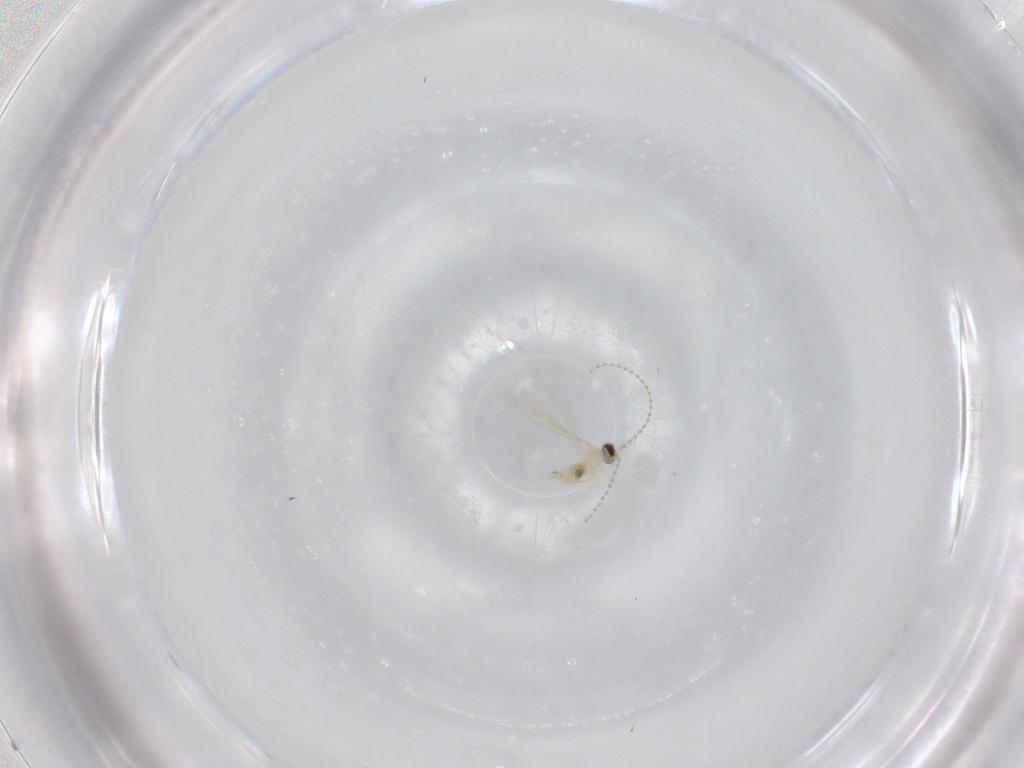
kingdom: Animalia
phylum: Arthropoda
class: Insecta
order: Diptera
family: Cecidomyiidae
